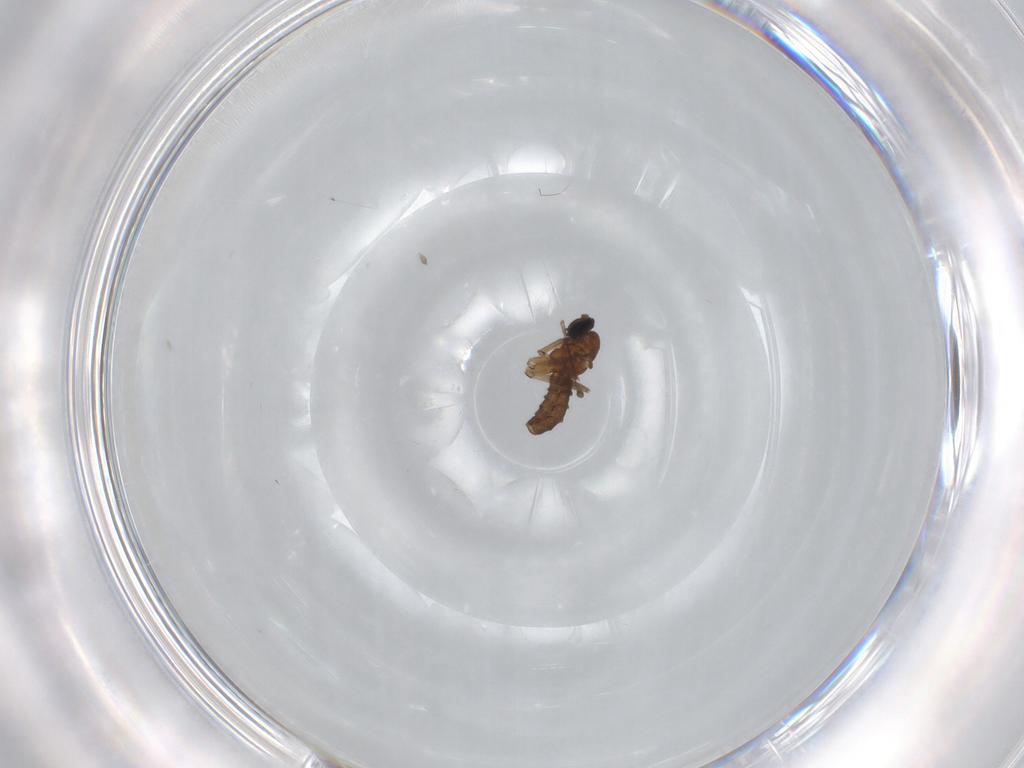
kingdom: Animalia
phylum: Arthropoda
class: Insecta
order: Diptera
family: Sciaridae
